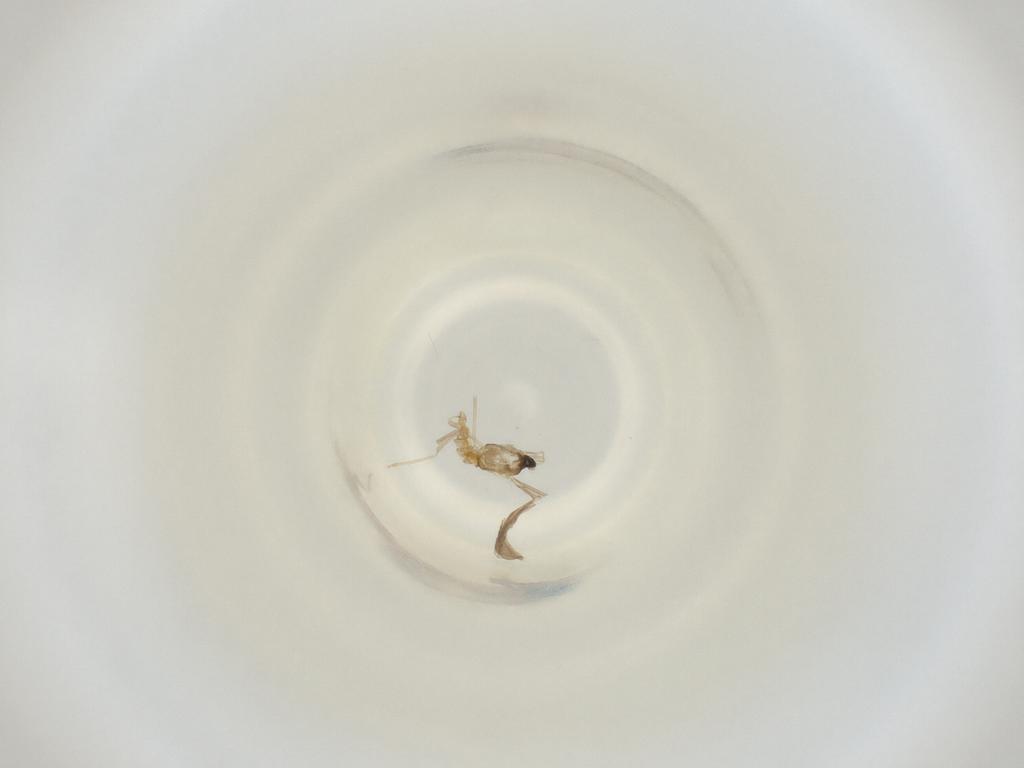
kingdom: Animalia
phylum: Arthropoda
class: Insecta
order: Diptera
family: Cecidomyiidae
